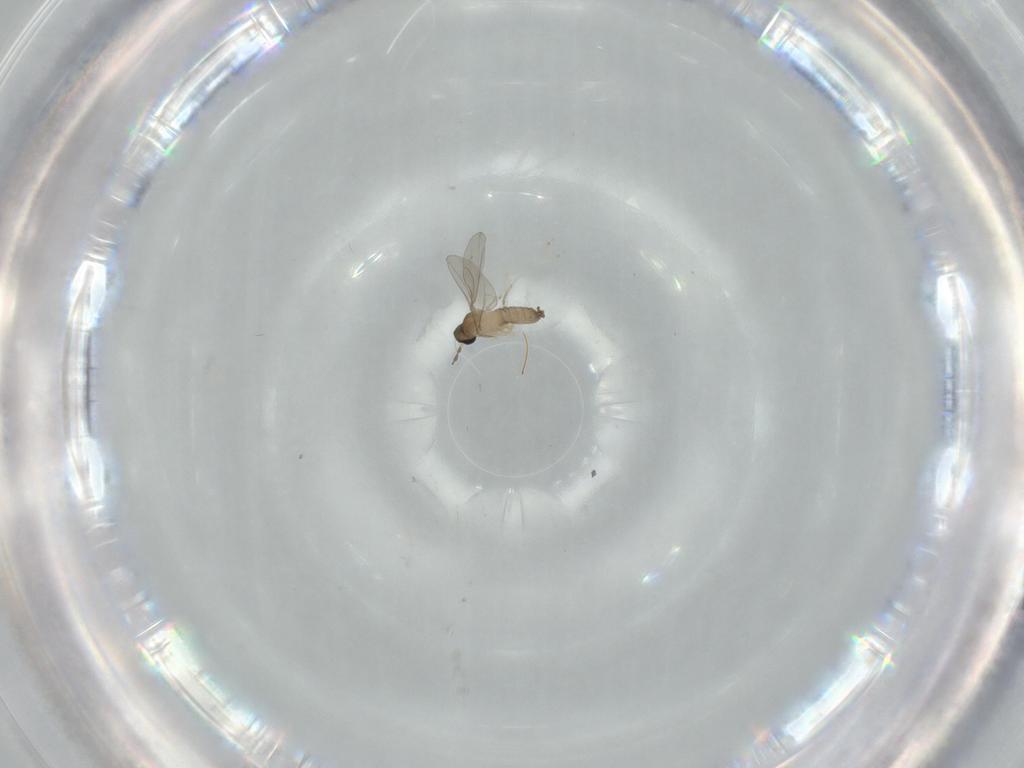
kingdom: Animalia
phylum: Arthropoda
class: Insecta
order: Diptera
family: Cecidomyiidae
